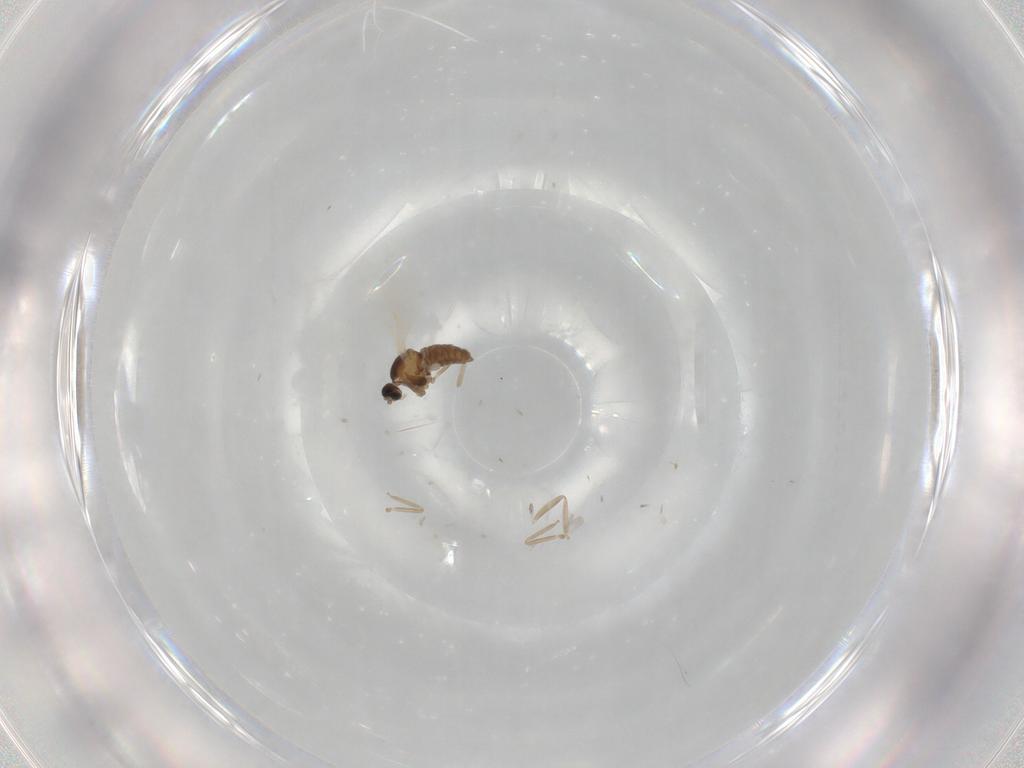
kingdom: Animalia
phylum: Arthropoda
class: Insecta
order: Diptera
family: Cecidomyiidae
